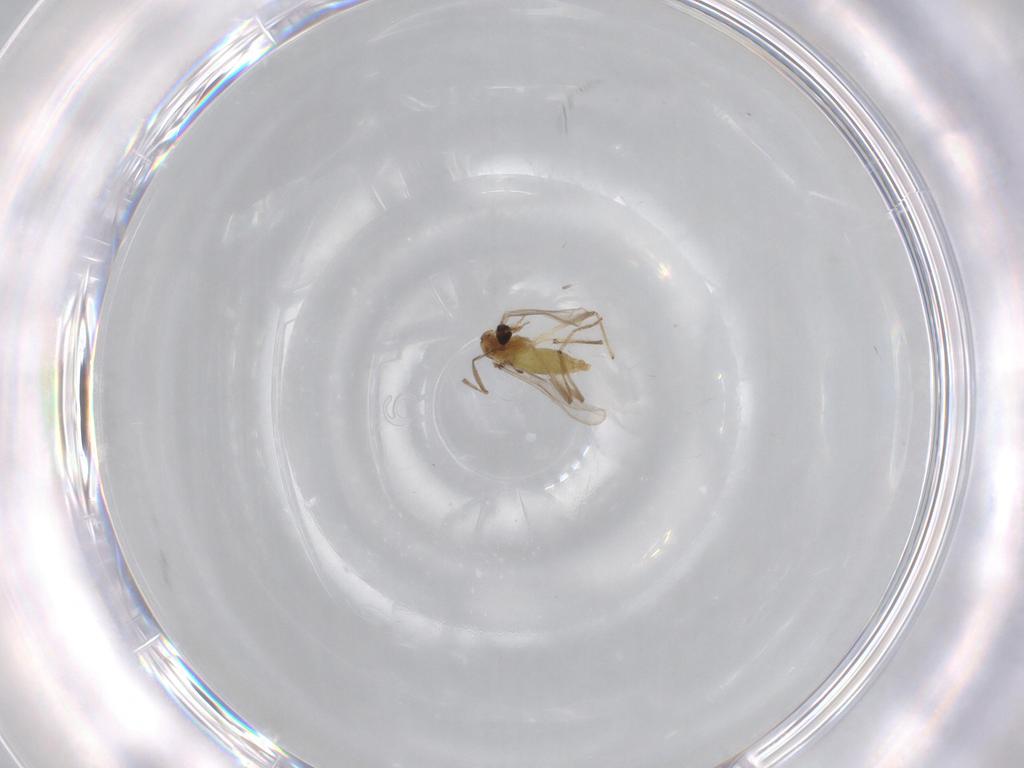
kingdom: Animalia
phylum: Arthropoda
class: Insecta
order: Diptera
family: Chironomidae
